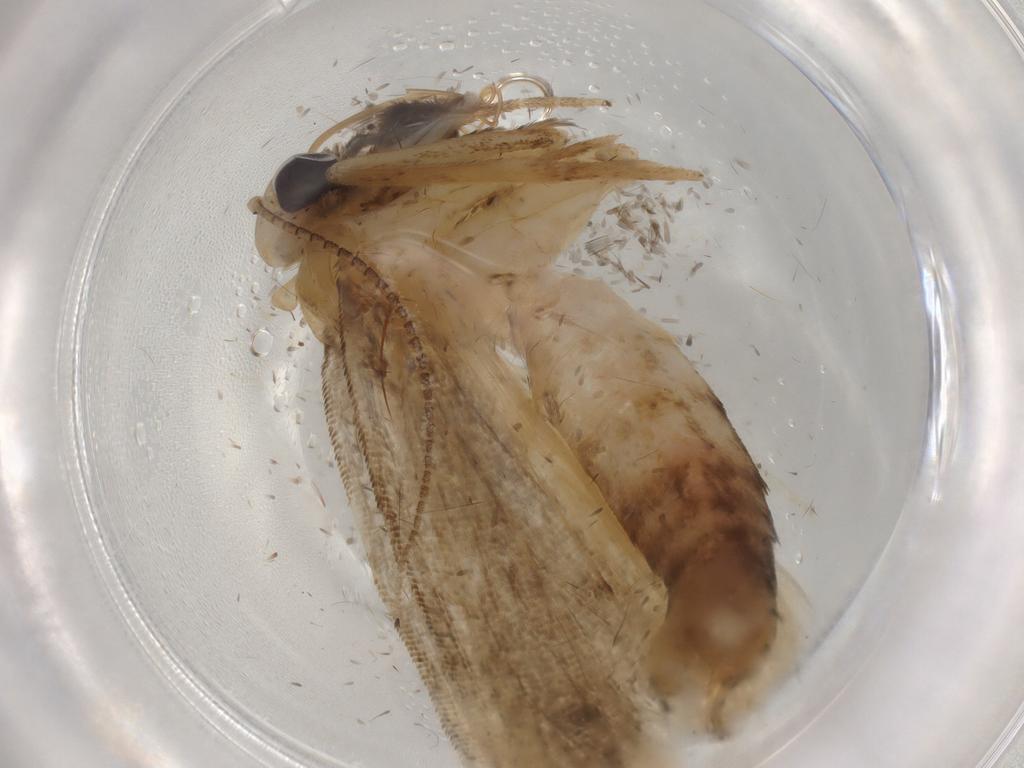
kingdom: Animalia
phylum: Arthropoda
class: Insecta
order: Lepidoptera
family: Noctuidae
